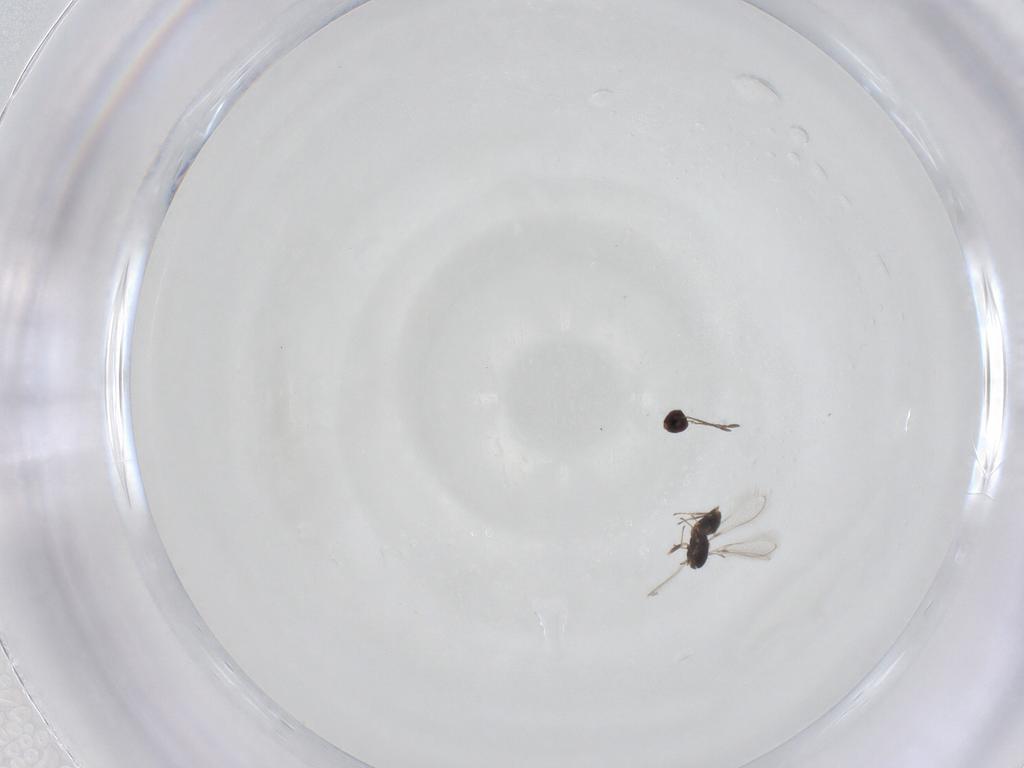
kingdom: Animalia
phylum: Arthropoda
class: Insecta
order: Hymenoptera
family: Mymaridae
